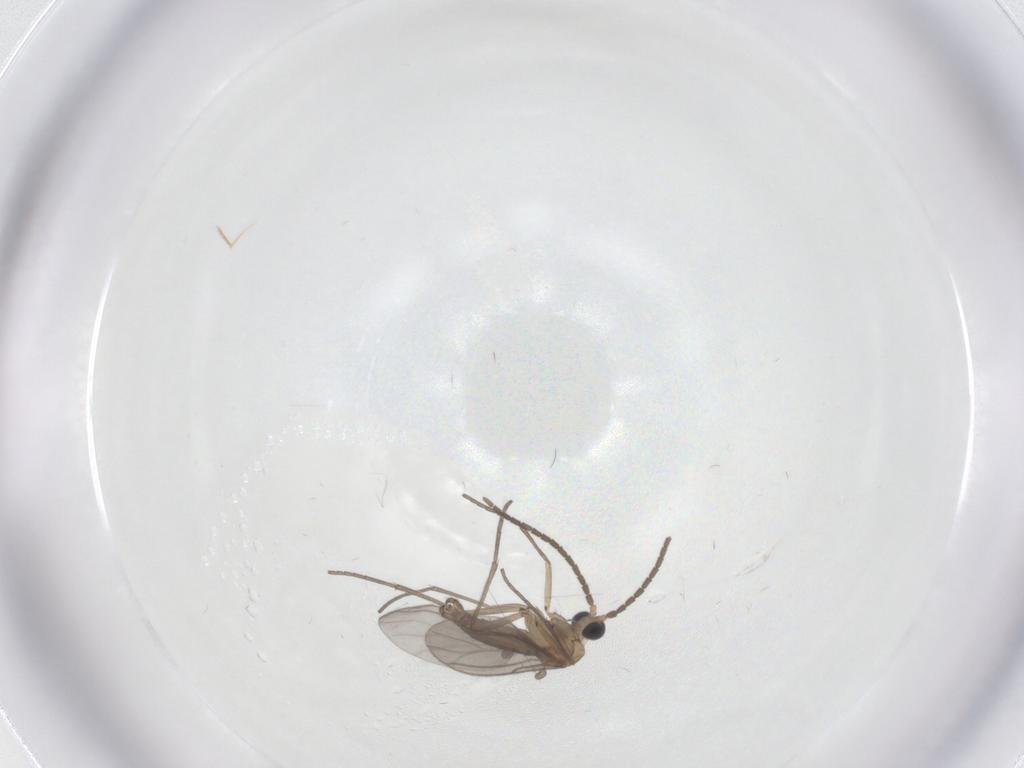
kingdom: Animalia
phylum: Arthropoda
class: Insecta
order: Diptera
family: Sciaridae
